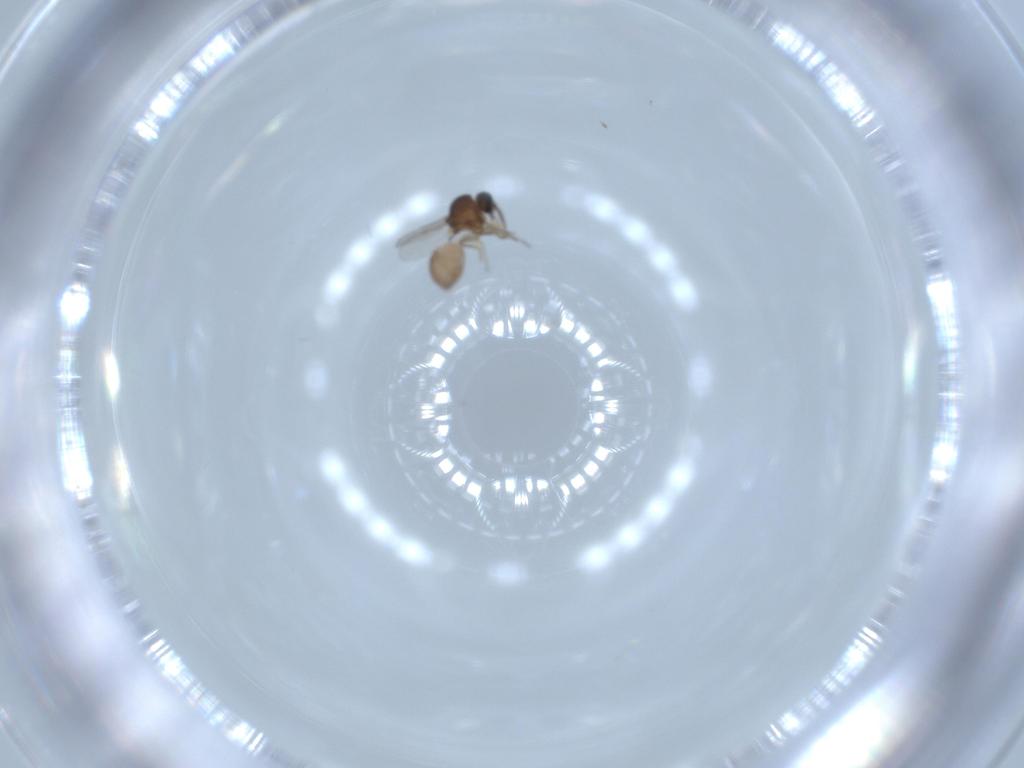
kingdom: Animalia
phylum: Arthropoda
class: Insecta
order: Diptera
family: Ceratopogonidae
